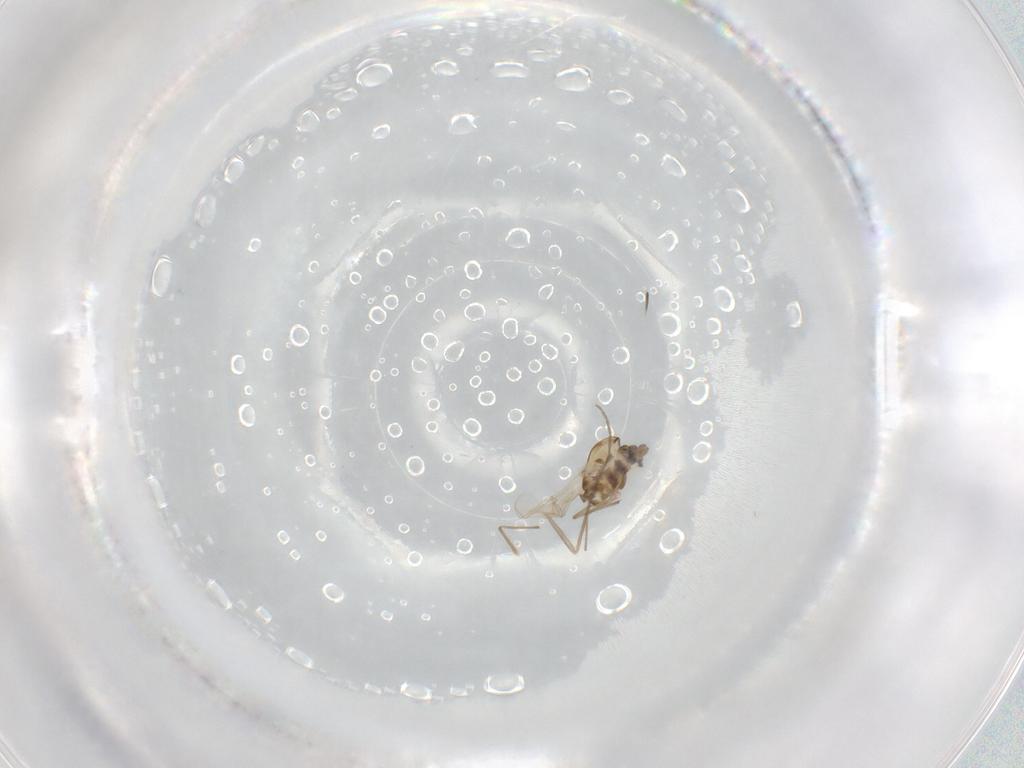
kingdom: Animalia
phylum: Arthropoda
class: Insecta
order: Diptera
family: Chironomidae
